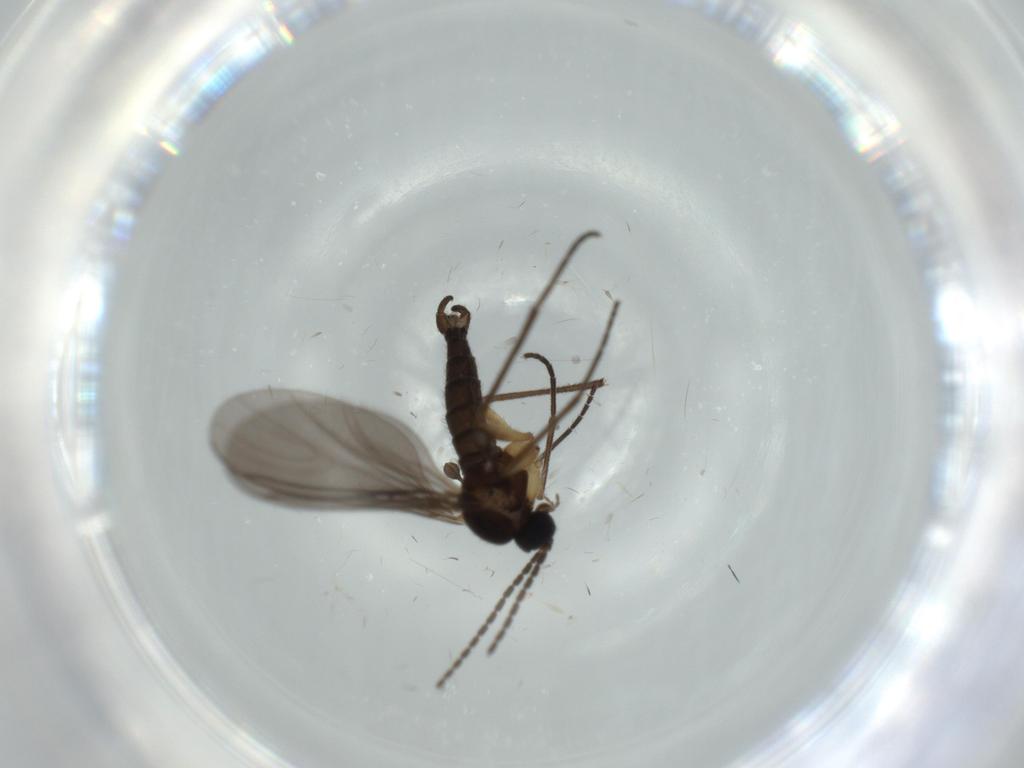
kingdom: Animalia
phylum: Arthropoda
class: Insecta
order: Diptera
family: Sciaridae
